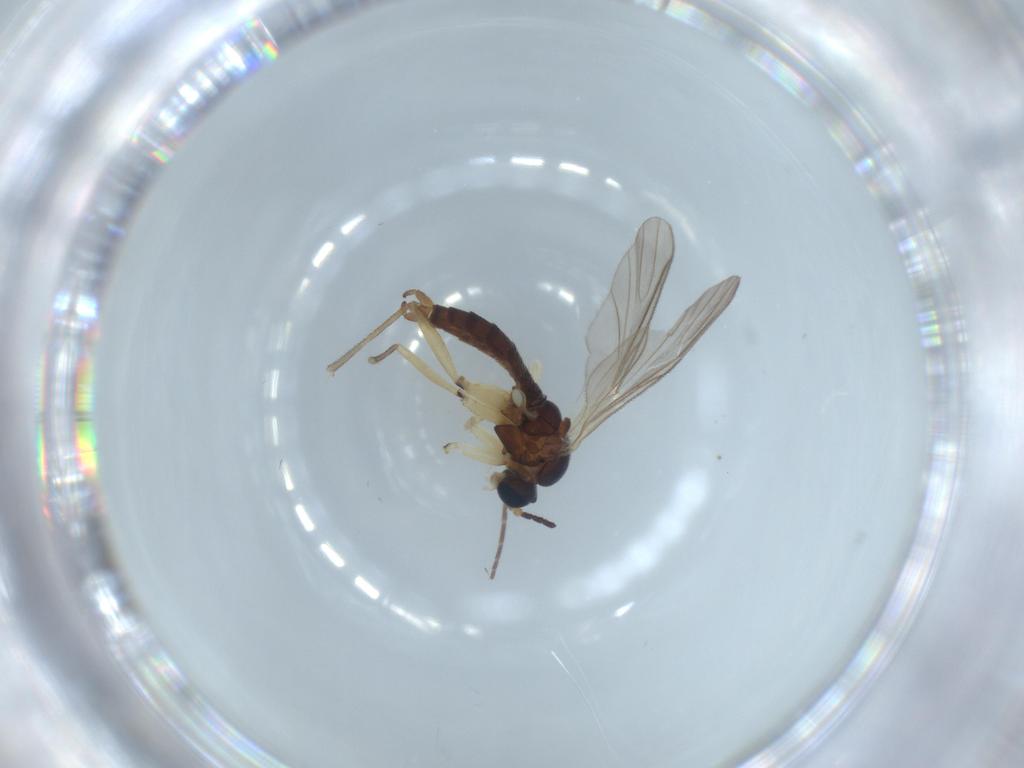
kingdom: Animalia
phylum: Arthropoda
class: Insecta
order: Diptera
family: Sciaridae
